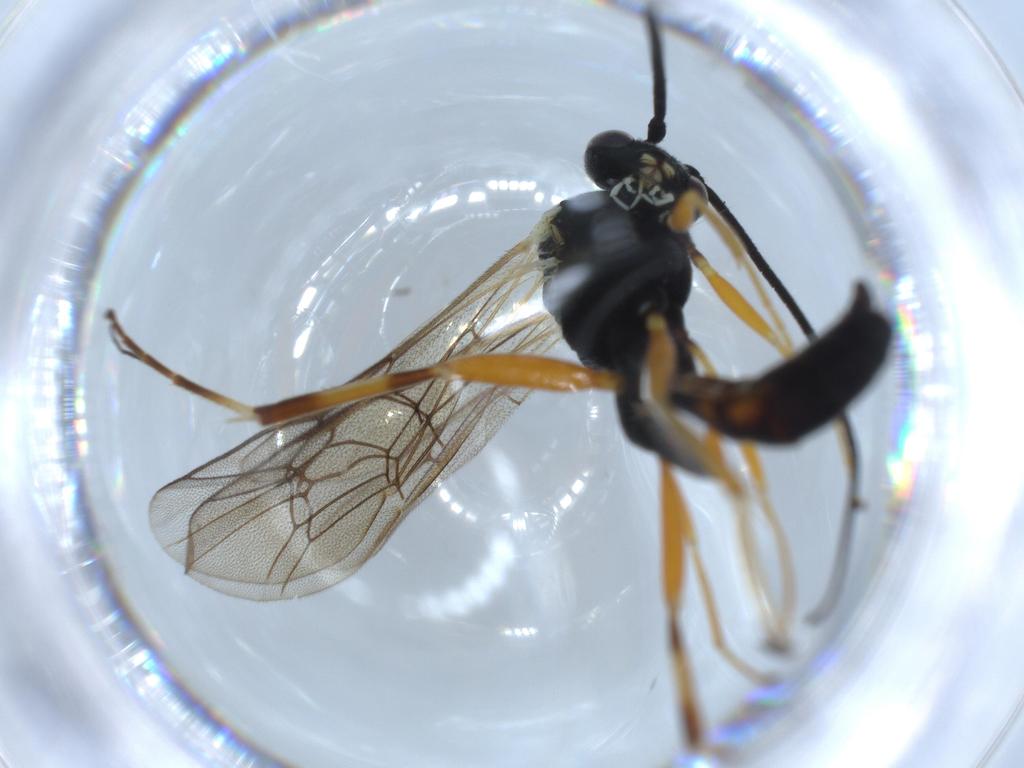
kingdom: Animalia
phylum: Arthropoda
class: Insecta
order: Hymenoptera
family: Ichneumonidae
